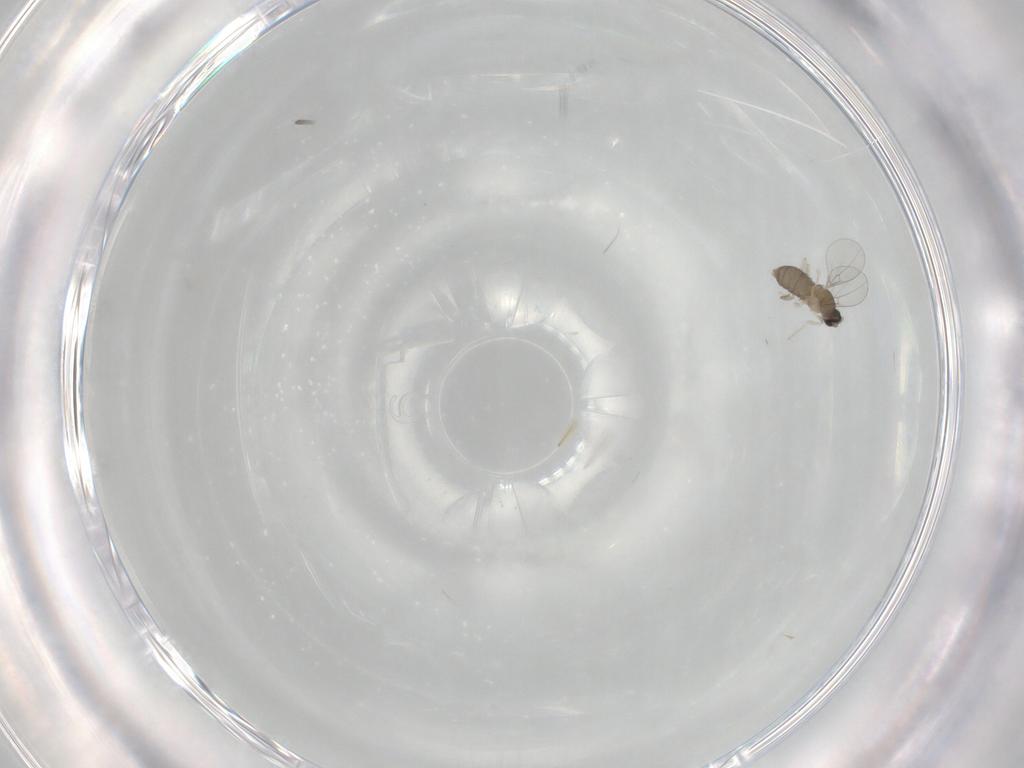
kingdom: Animalia
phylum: Arthropoda
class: Insecta
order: Diptera
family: Cecidomyiidae
